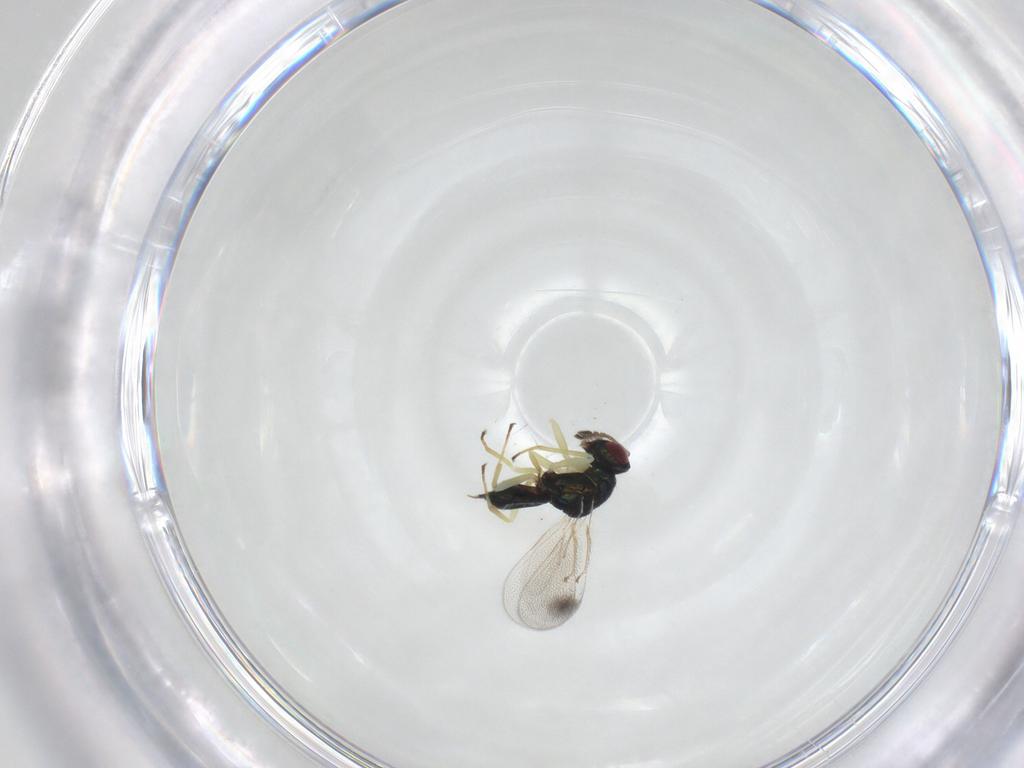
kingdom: Animalia
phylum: Arthropoda
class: Insecta
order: Hymenoptera
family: Eulophidae
